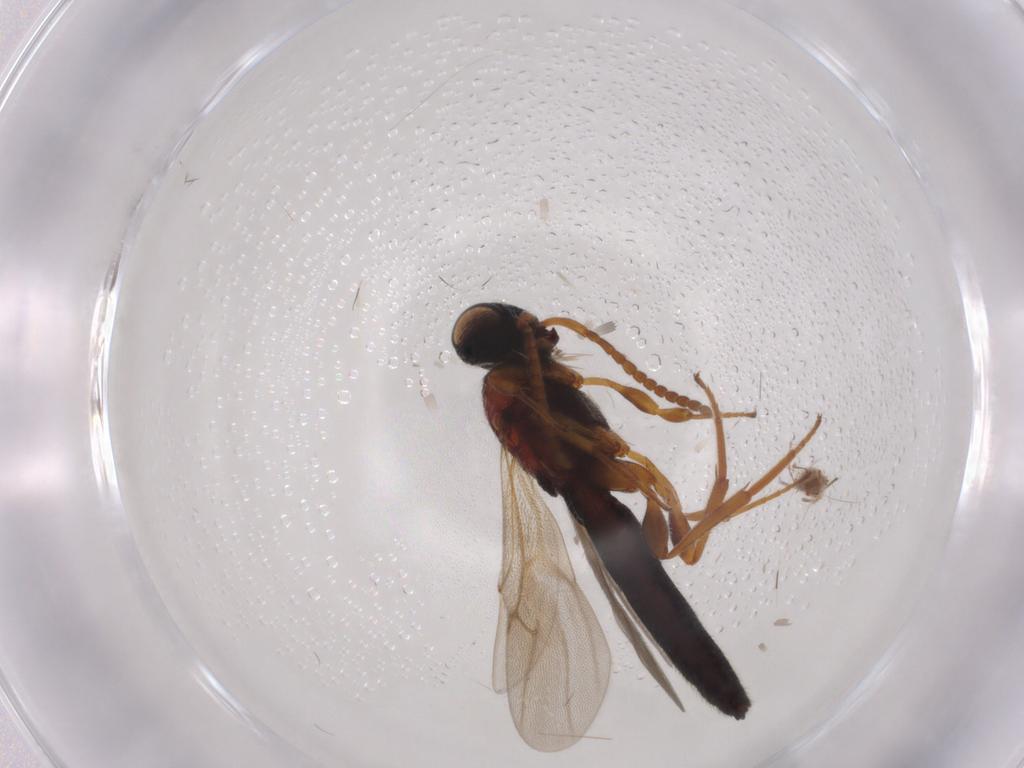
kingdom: Animalia
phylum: Arthropoda
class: Insecta
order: Hymenoptera
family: Scelionidae
